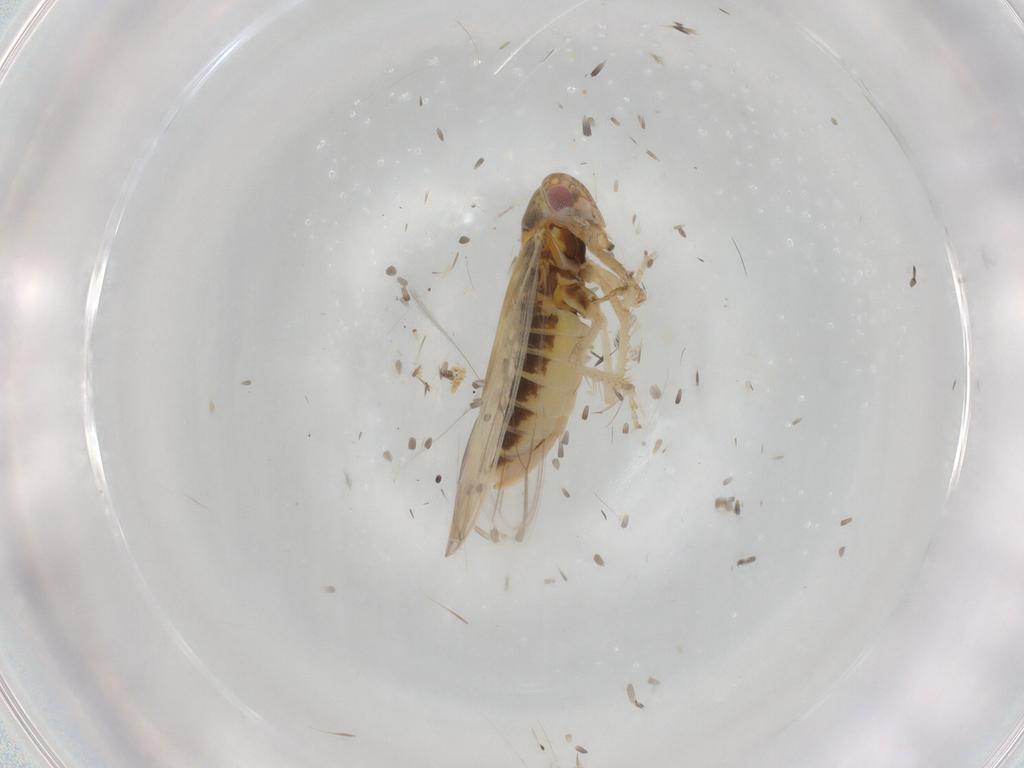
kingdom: Animalia
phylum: Arthropoda
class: Insecta
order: Hemiptera
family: Cicadellidae
